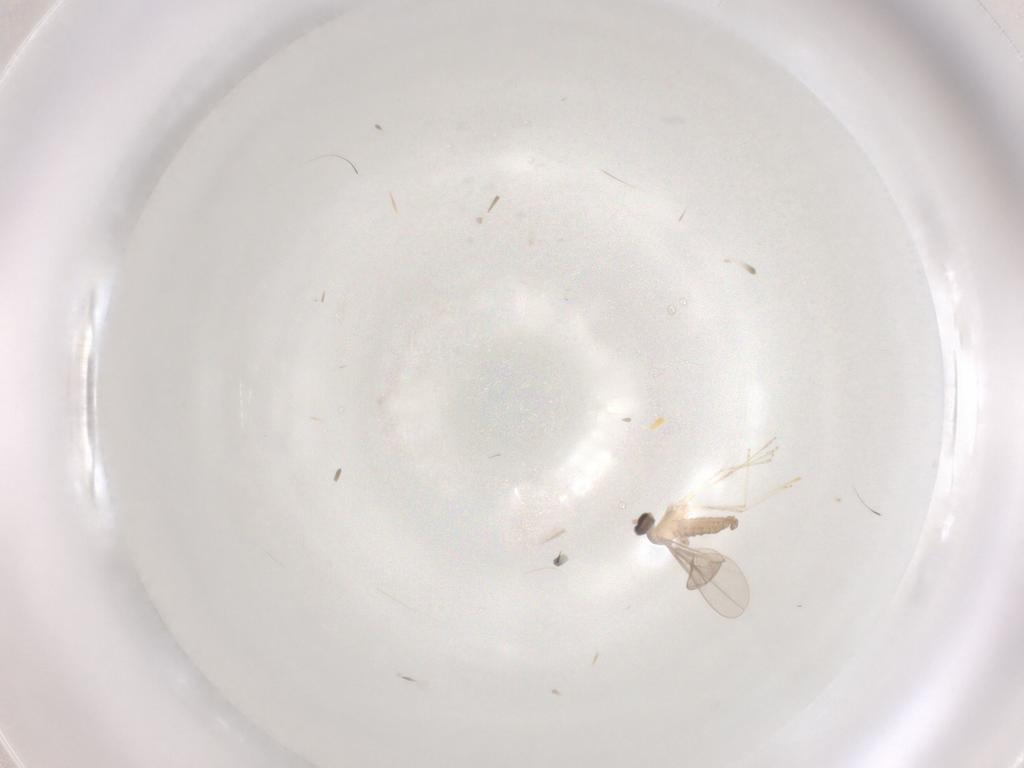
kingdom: Animalia
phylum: Arthropoda
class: Insecta
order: Diptera
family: Cecidomyiidae
